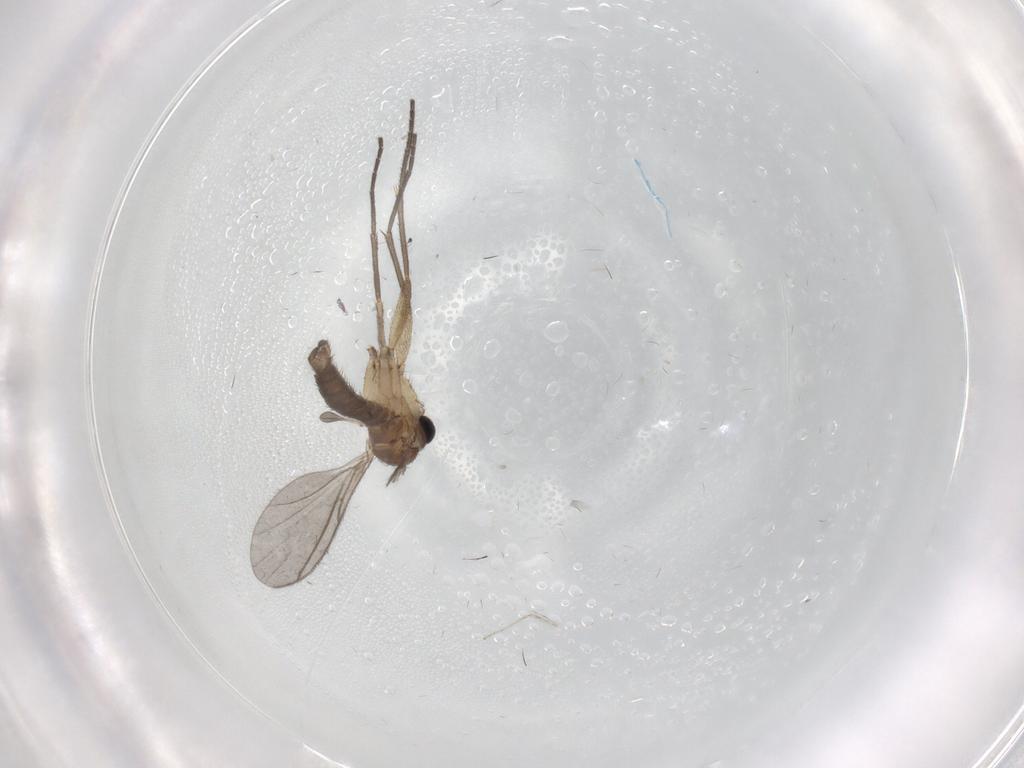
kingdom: Animalia
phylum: Arthropoda
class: Insecta
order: Diptera
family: Sciaridae
